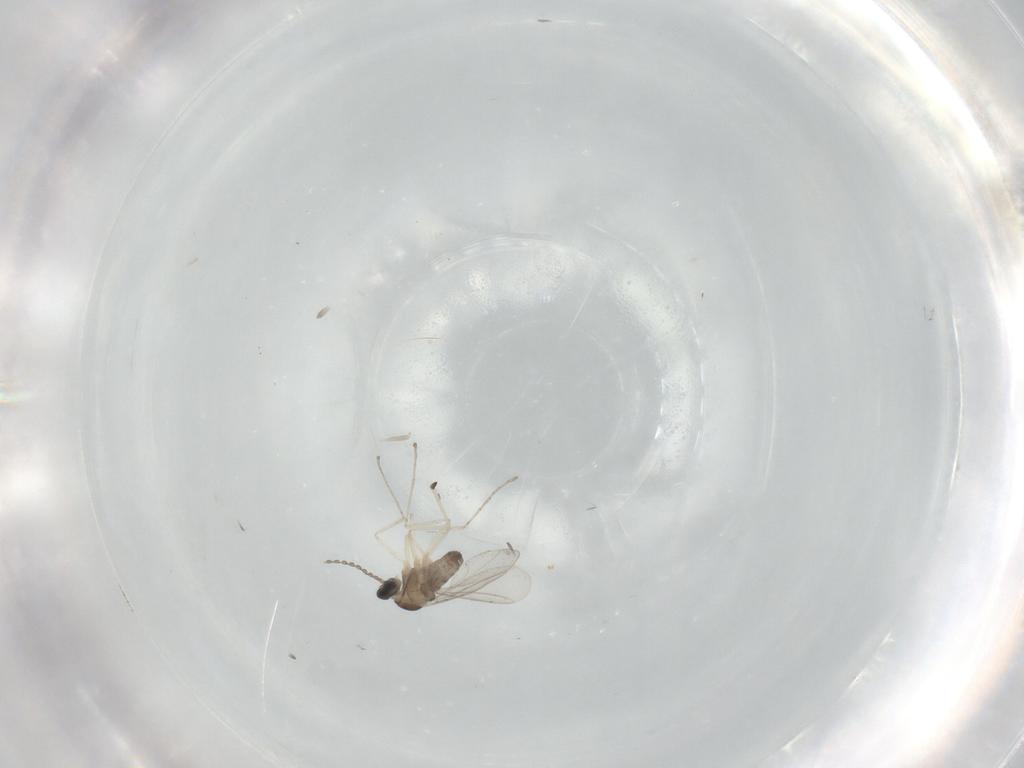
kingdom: Animalia
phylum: Arthropoda
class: Insecta
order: Diptera
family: Cecidomyiidae
